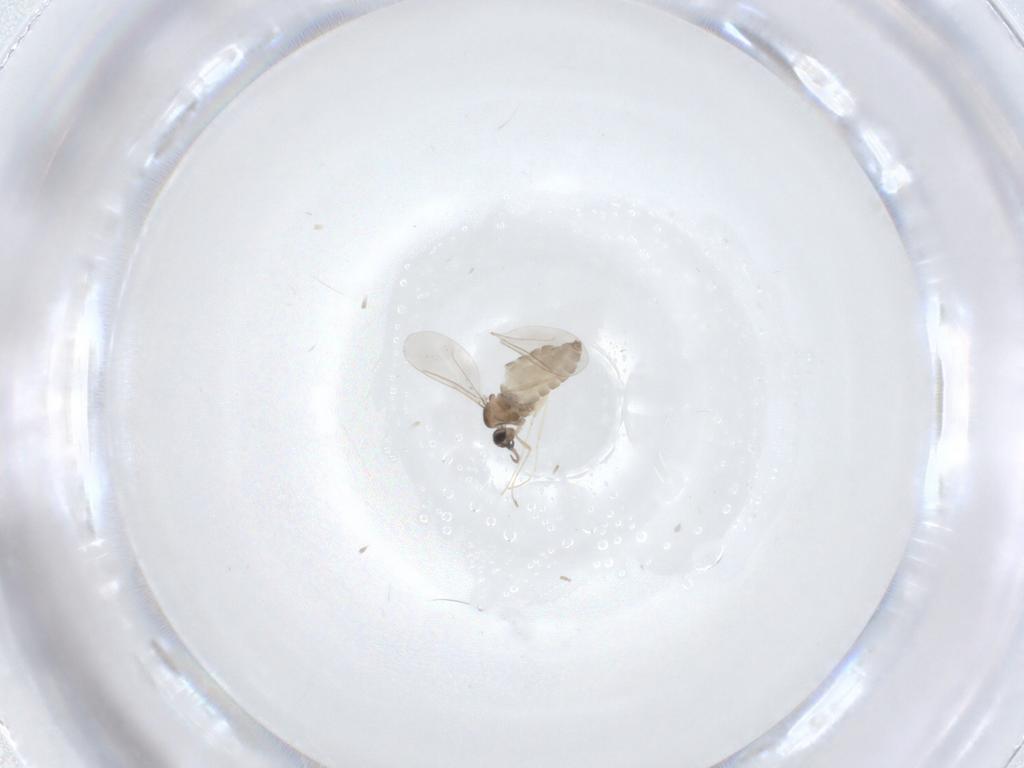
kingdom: Animalia
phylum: Arthropoda
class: Insecta
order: Diptera
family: Cecidomyiidae
